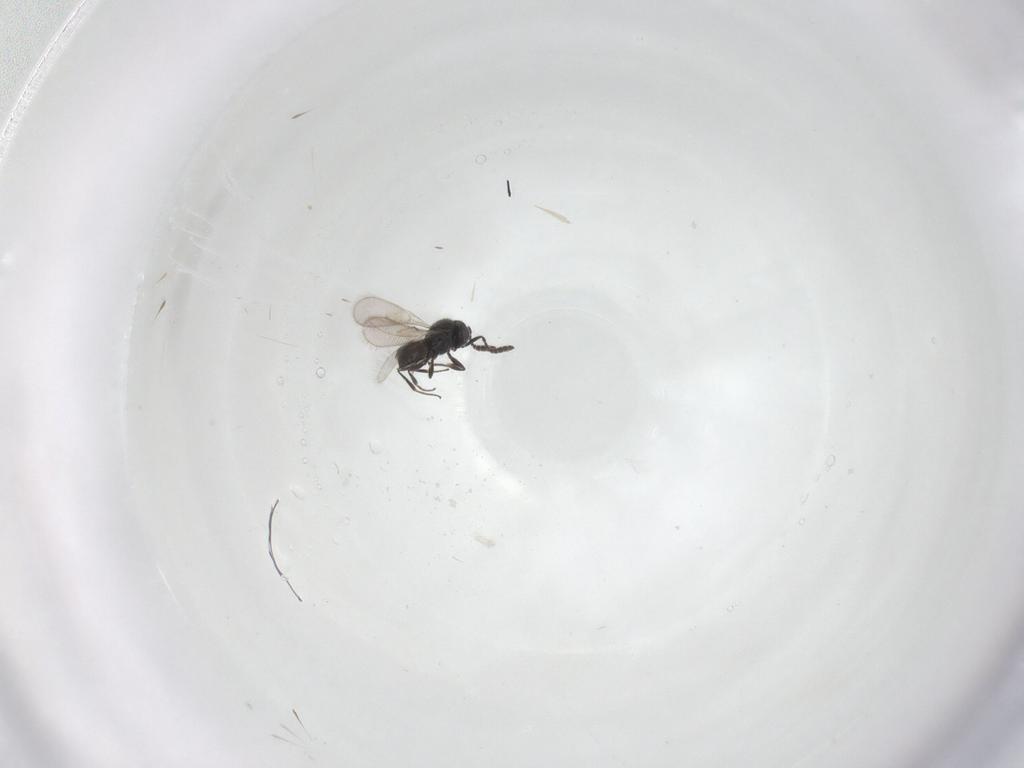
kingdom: Animalia
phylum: Arthropoda
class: Insecta
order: Hymenoptera
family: Scelionidae
